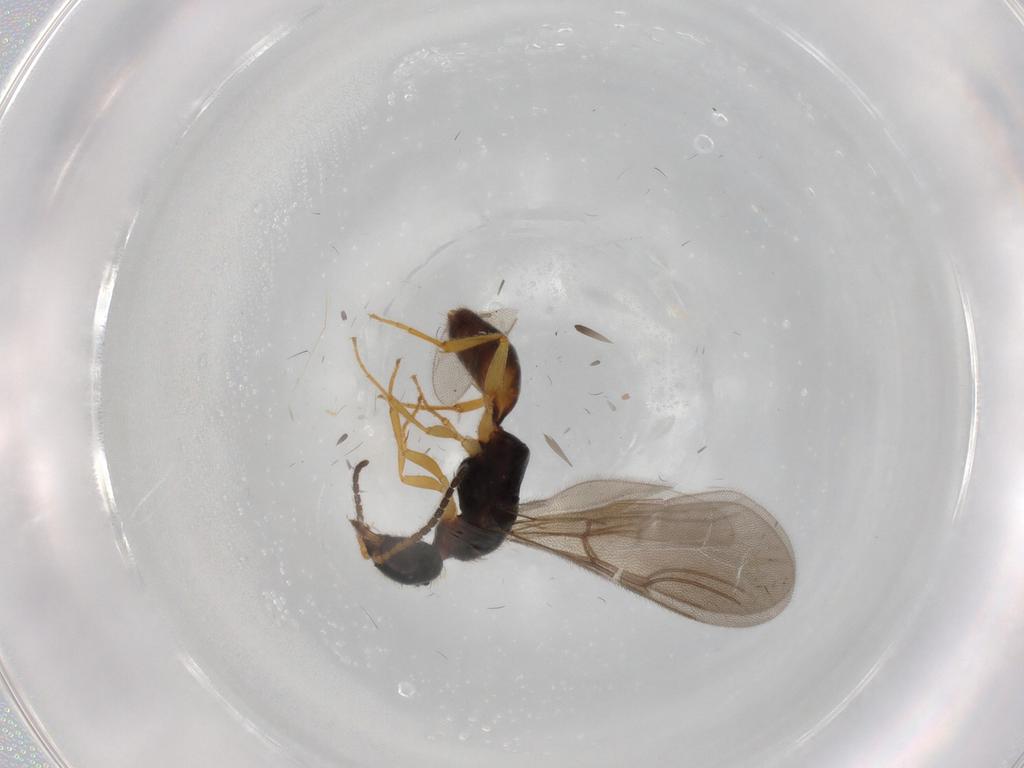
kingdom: Animalia
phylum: Arthropoda
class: Insecta
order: Hymenoptera
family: Bethylidae
